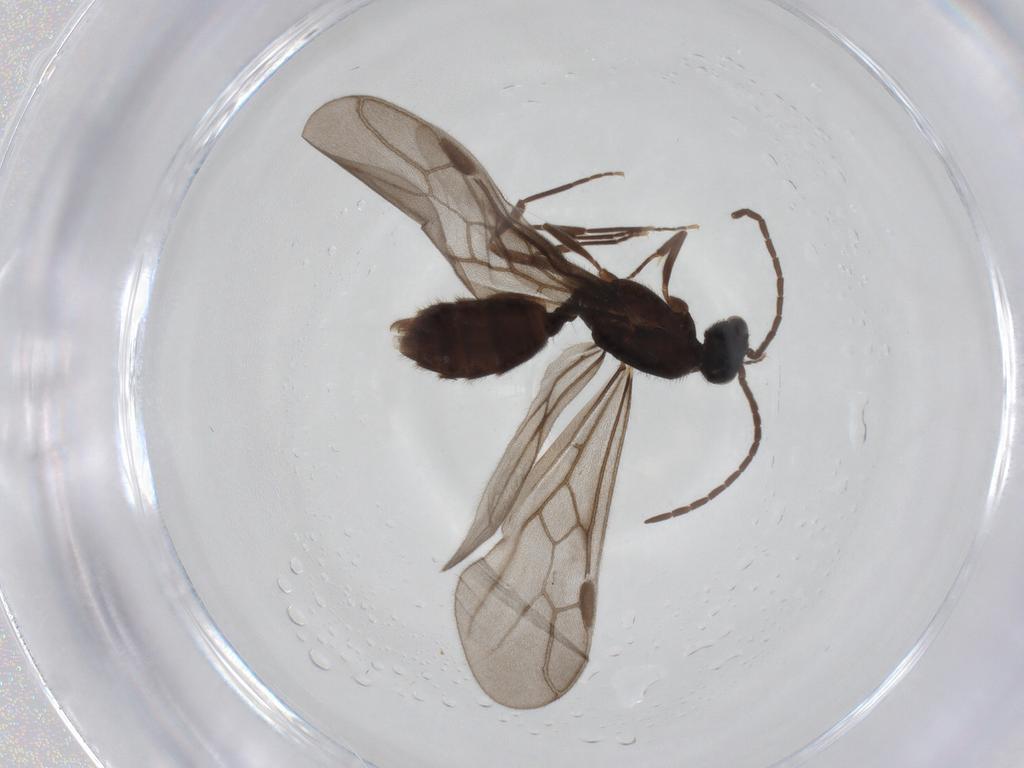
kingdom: Animalia
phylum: Arthropoda
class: Insecta
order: Hymenoptera
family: Formicidae
